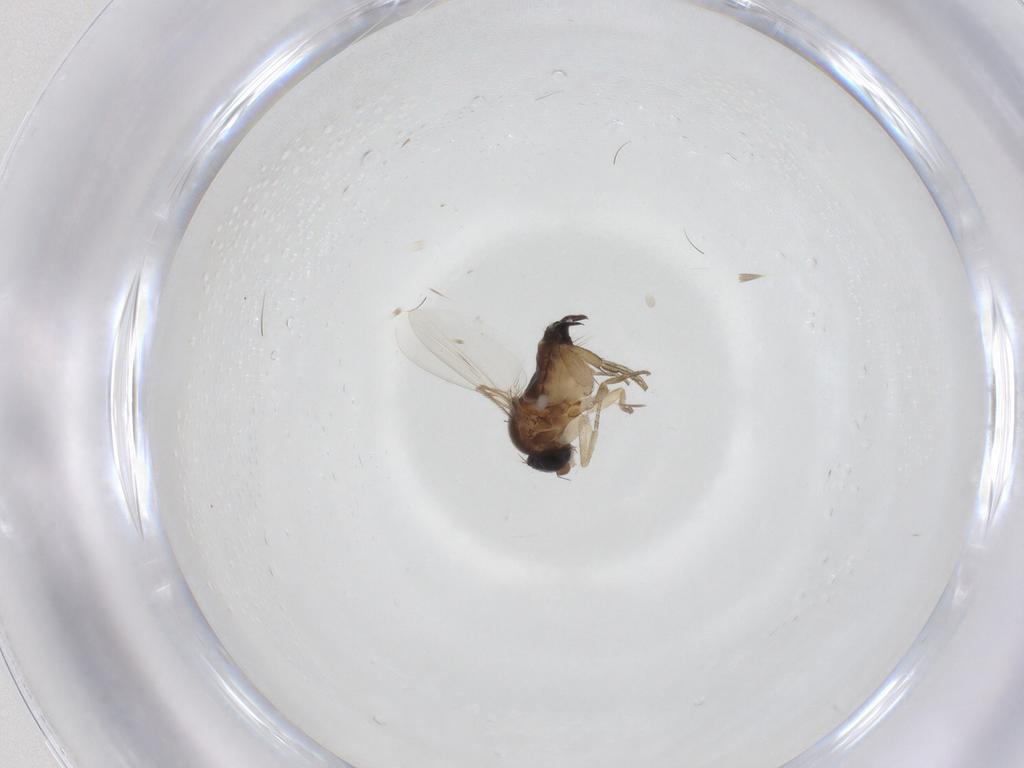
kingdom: Animalia
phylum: Arthropoda
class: Insecta
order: Diptera
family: Phoridae
